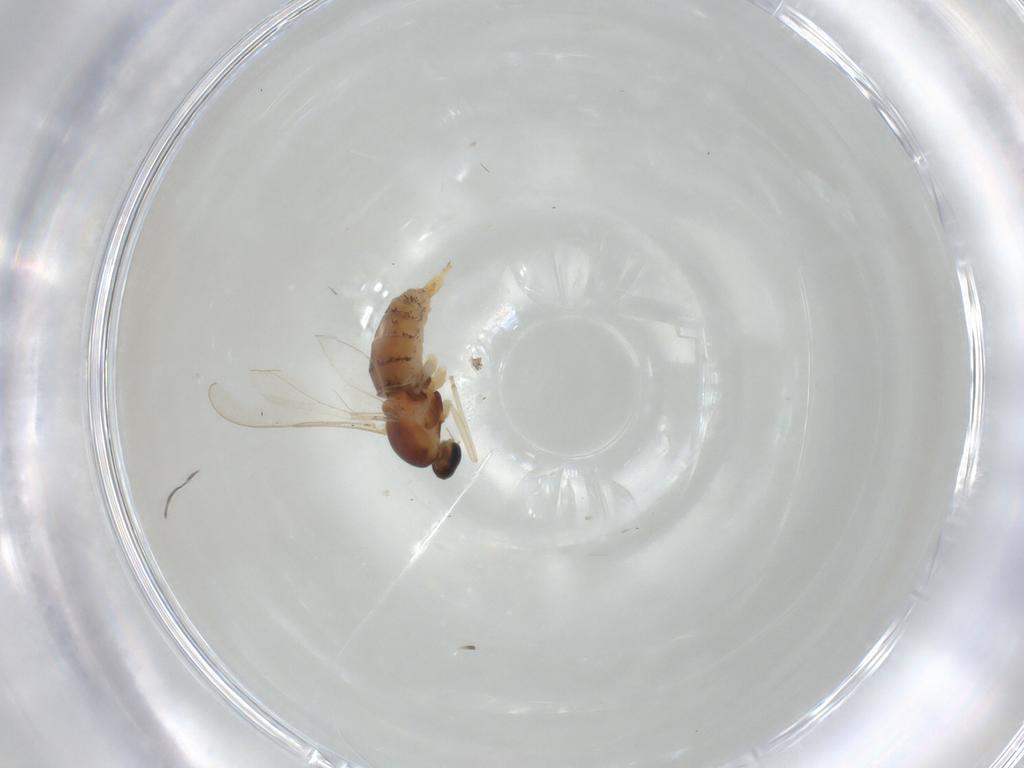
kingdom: Animalia
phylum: Arthropoda
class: Insecta
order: Diptera
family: Cecidomyiidae
